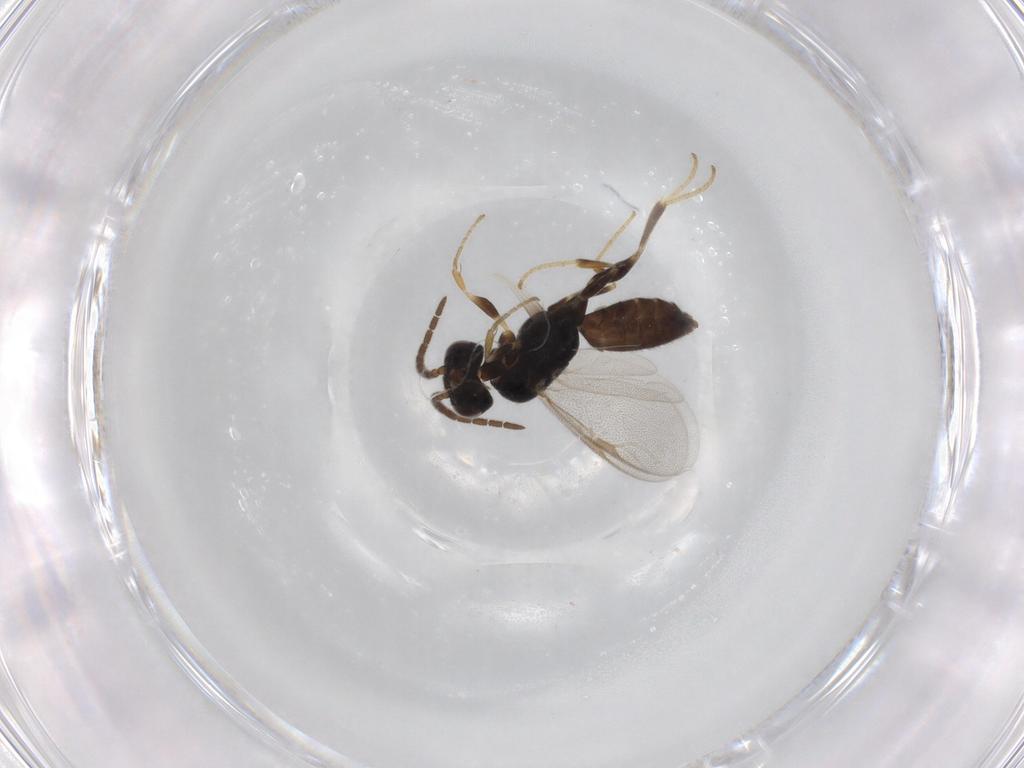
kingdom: Animalia
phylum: Arthropoda
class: Insecta
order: Hymenoptera
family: Dryinidae
